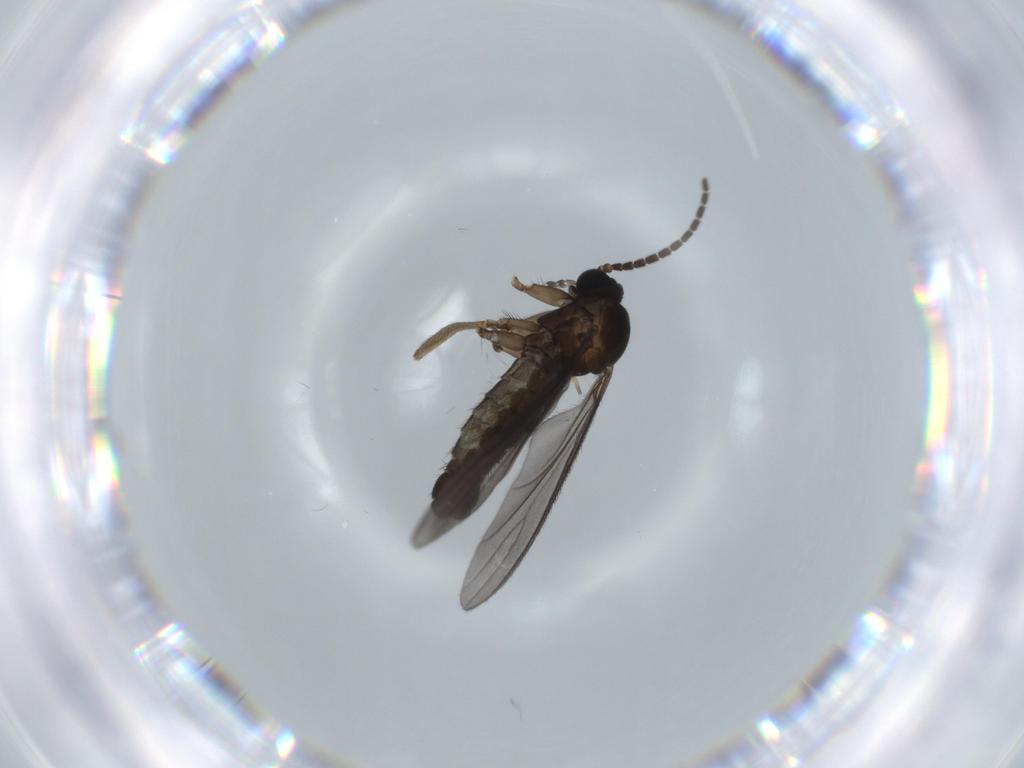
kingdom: Animalia
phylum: Arthropoda
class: Insecta
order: Diptera
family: Sciaridae
